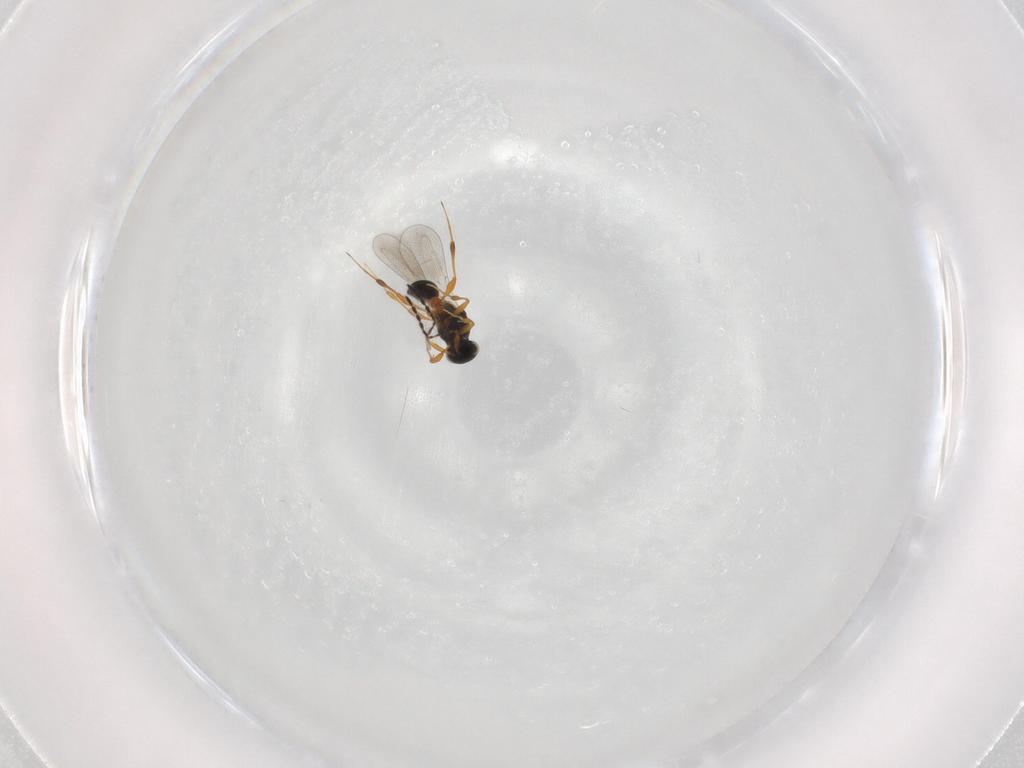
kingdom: Animalia
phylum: Arthropoda
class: Insecta
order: Hymenoptera
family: Platygastridae
